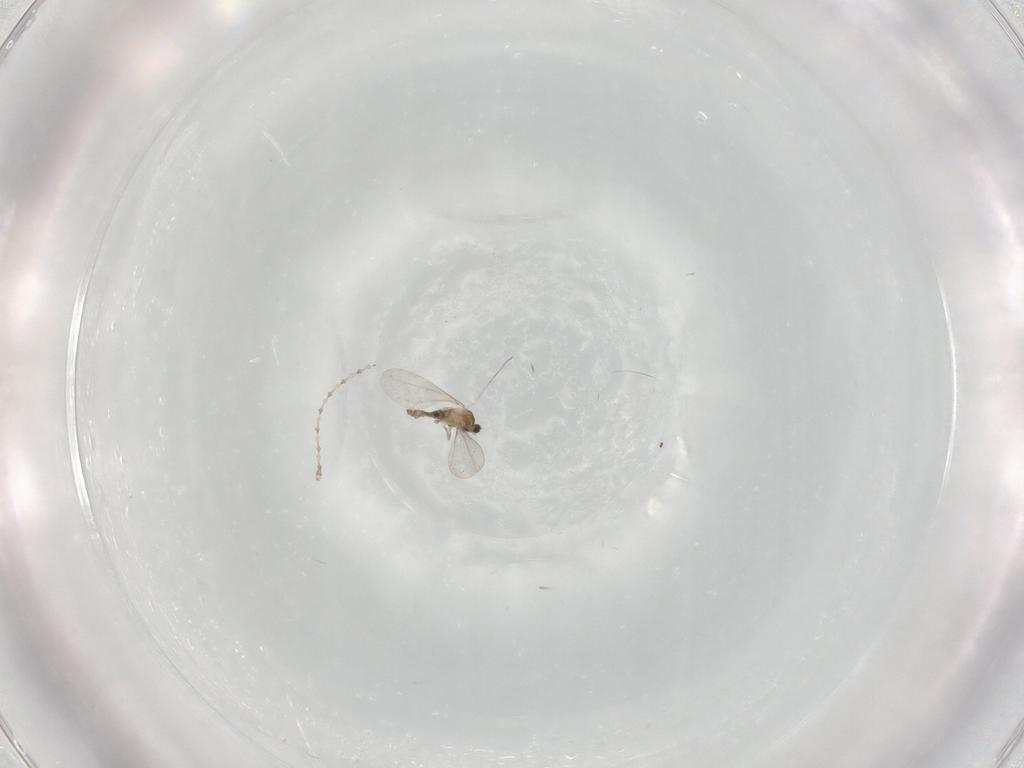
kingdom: Animalia
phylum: Arthropoda
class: Insecta
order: Diptera
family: Cecidomyiidae
